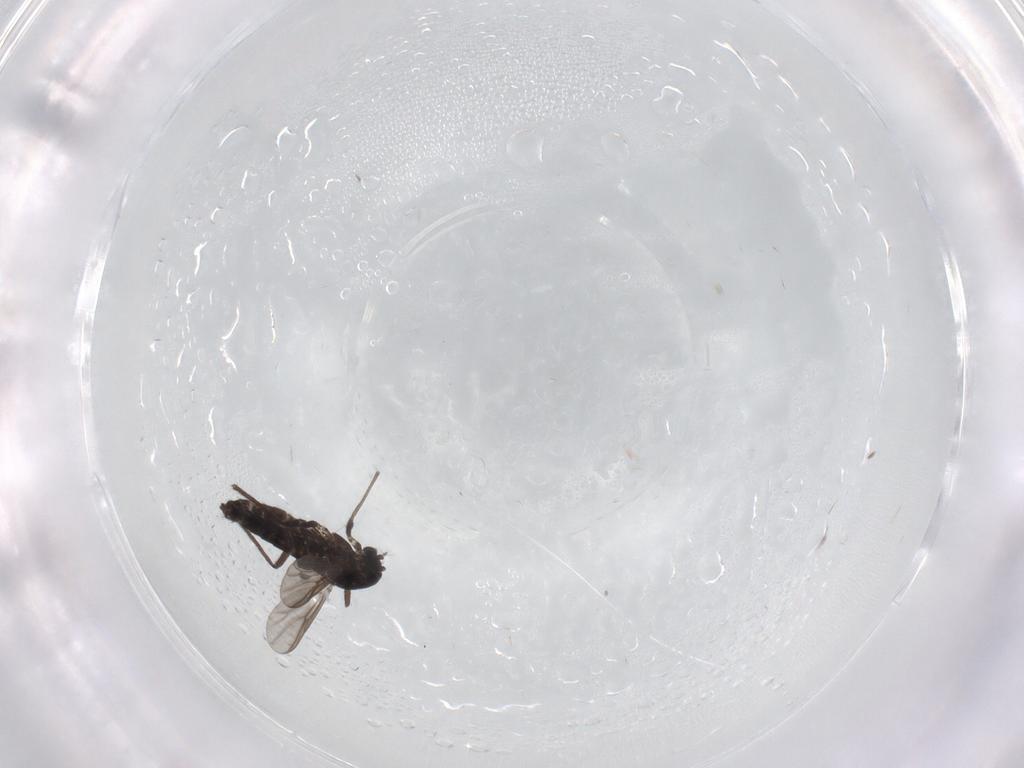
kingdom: Animalia
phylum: Arthropoda
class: Insecta
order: Diptera
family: Chironomidae
